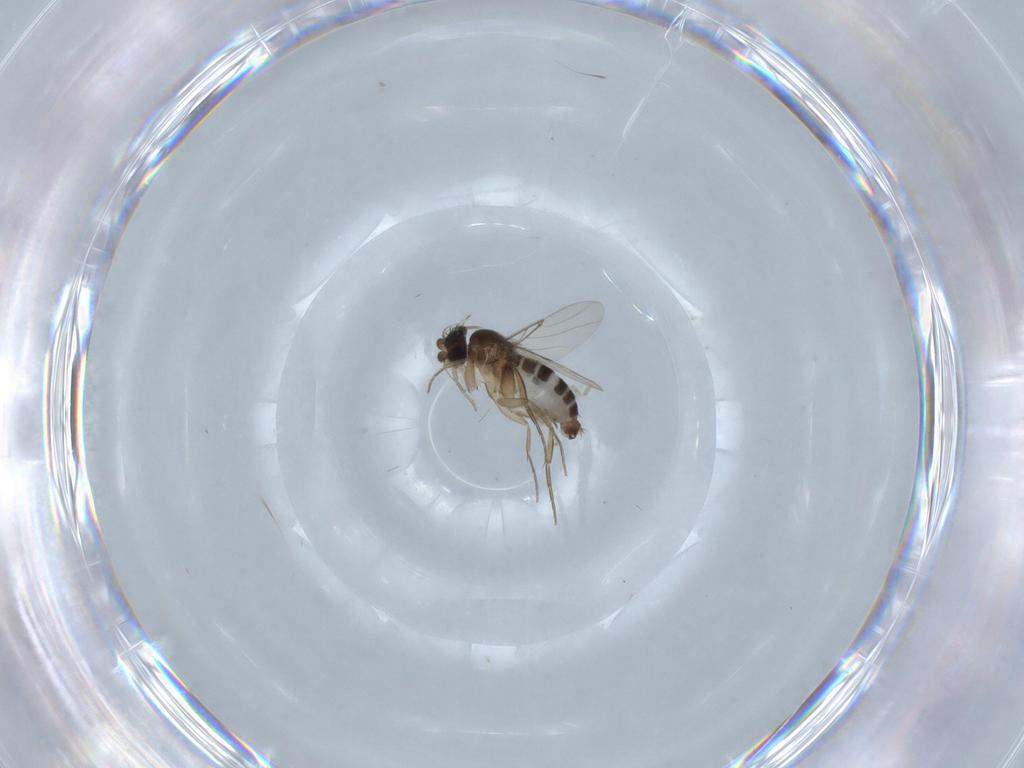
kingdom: Animalia
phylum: Arthropoda
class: Insecta
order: Diptera
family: Phoridae
